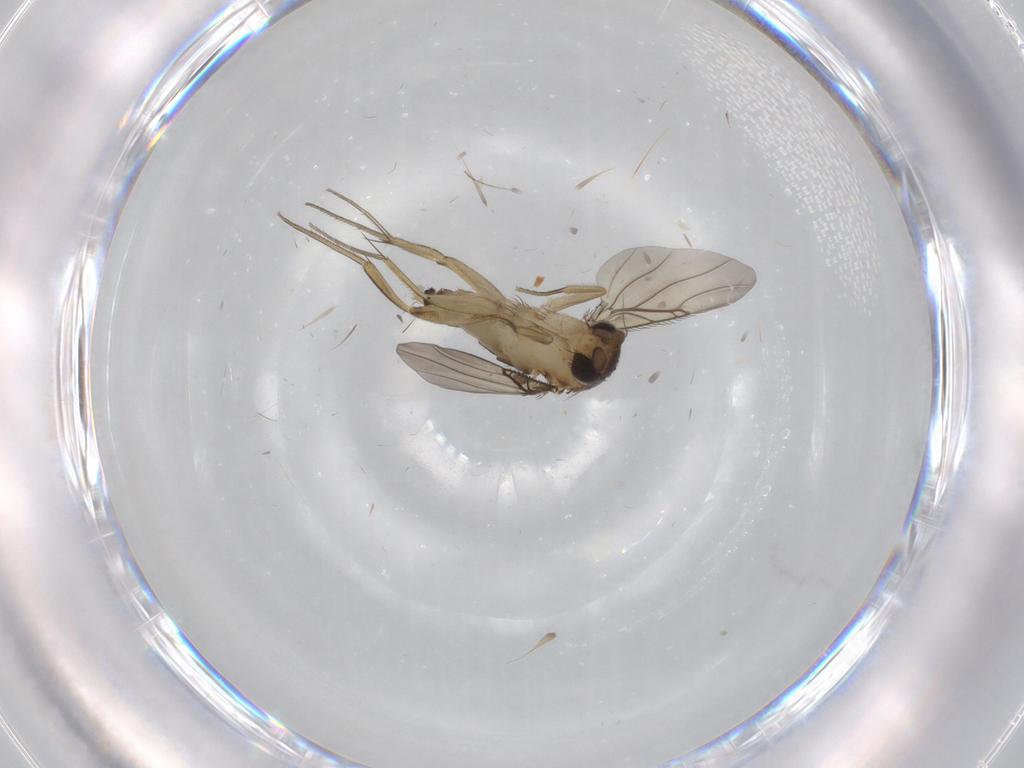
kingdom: Animalia
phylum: Arthropoda
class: Insecta
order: Diptera
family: Phoridae
